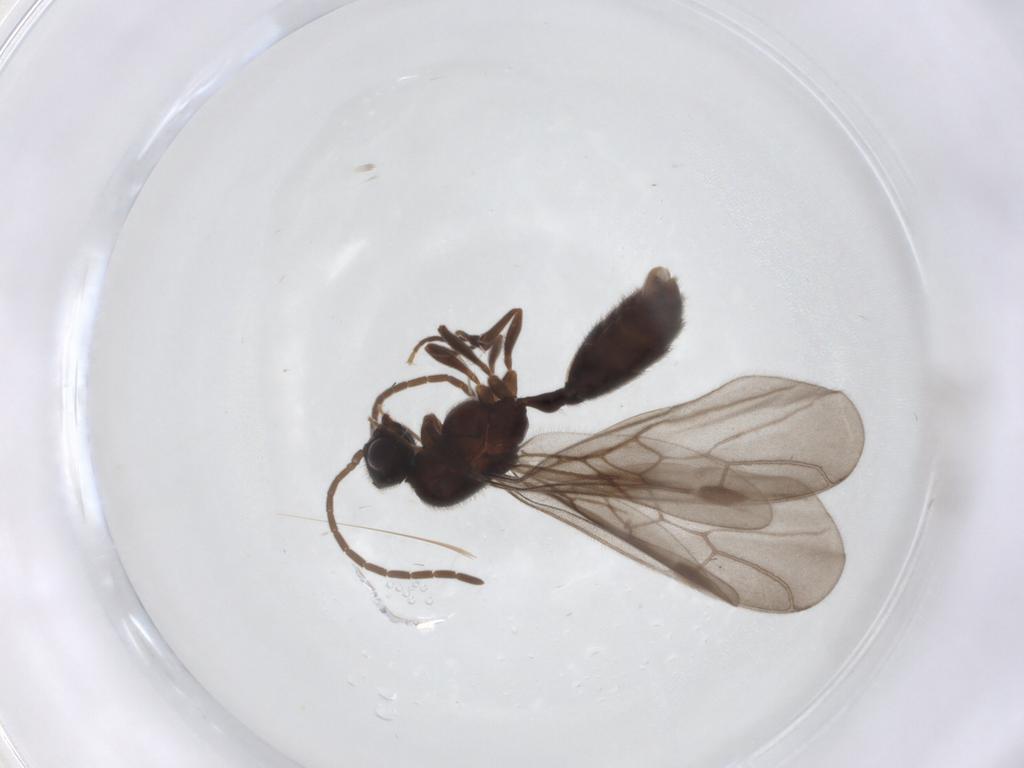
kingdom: Animalia
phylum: Arthropoda
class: Insecta
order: Hymenoptera
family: Formicidae
